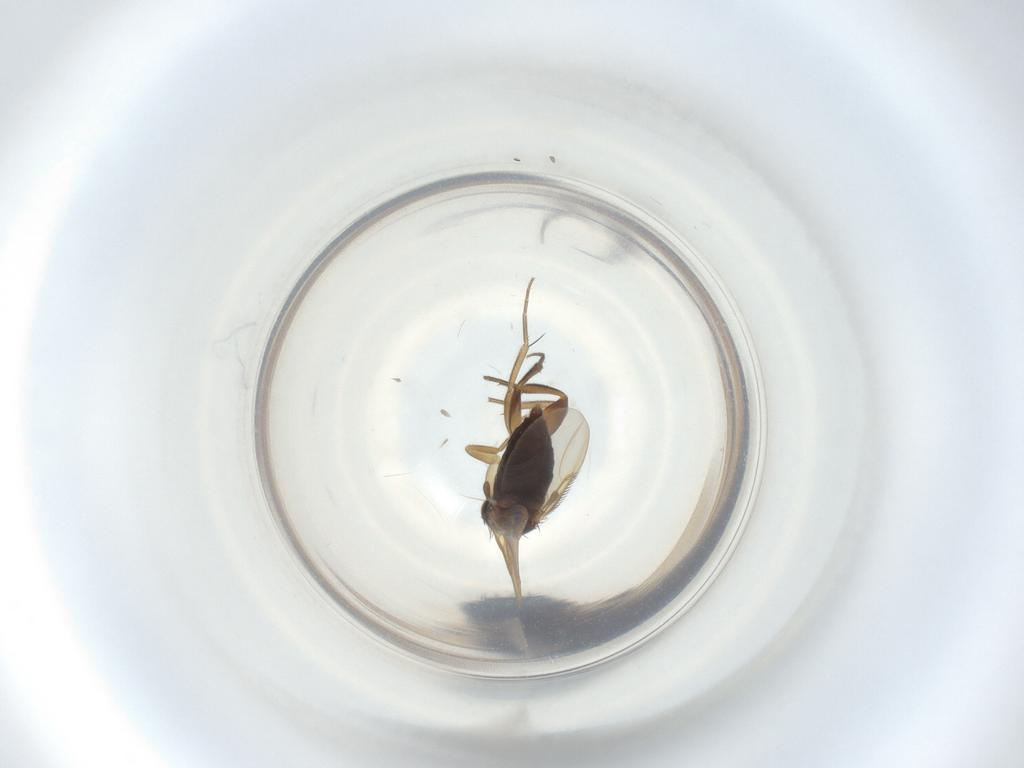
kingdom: Animalia
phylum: Arthropoda
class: Insecta
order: Diptera
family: Phoridae
